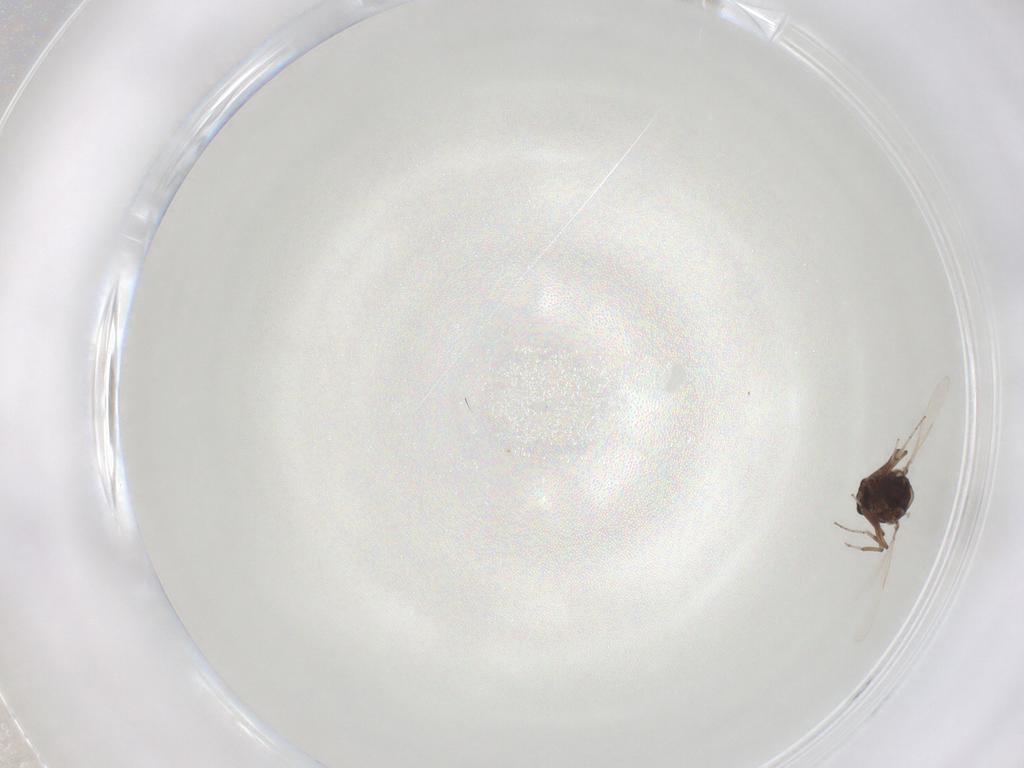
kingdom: Animalia
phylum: Arthropoda
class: Insecta
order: Diptera
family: Ceratopogonidae
